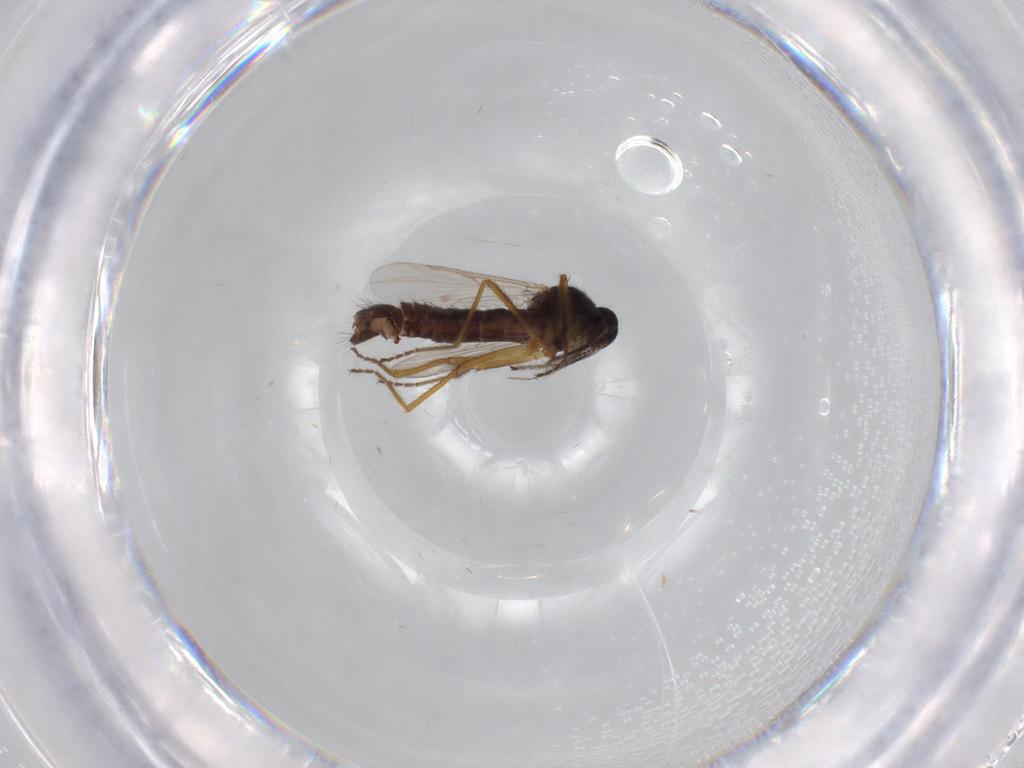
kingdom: Animalia
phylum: Arthropoda
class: Insecta
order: Diptera
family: Ceratopogonidae
